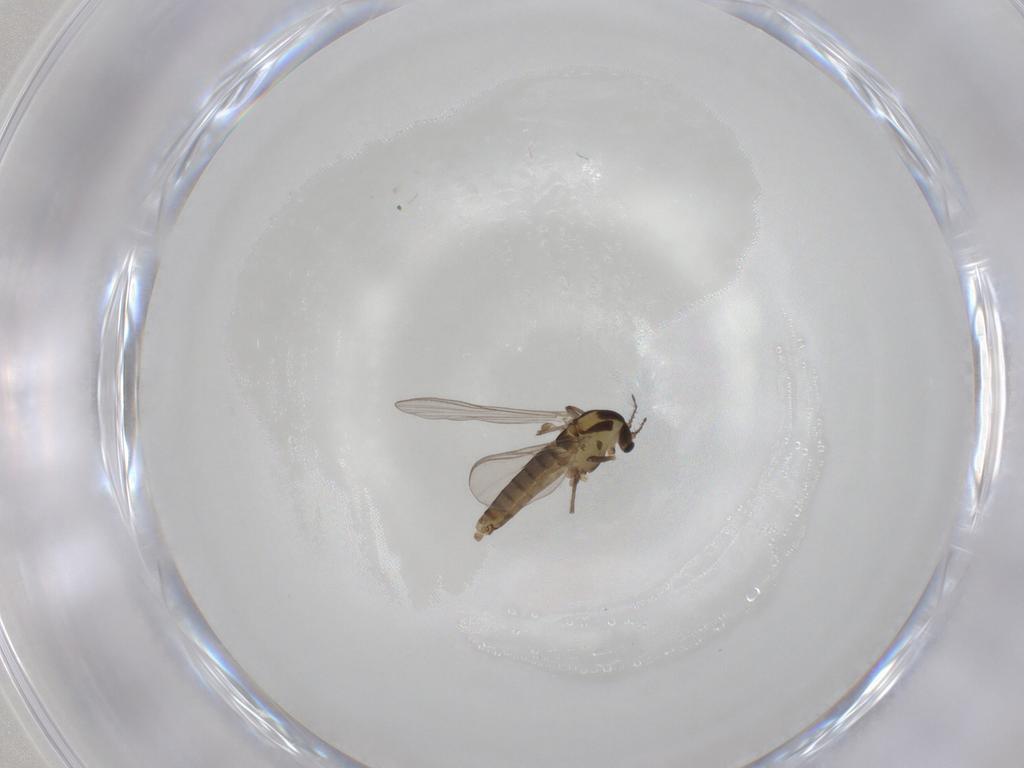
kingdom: Animalia
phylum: Arthropoda
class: Insecta
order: Diptera
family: Chironomidae
